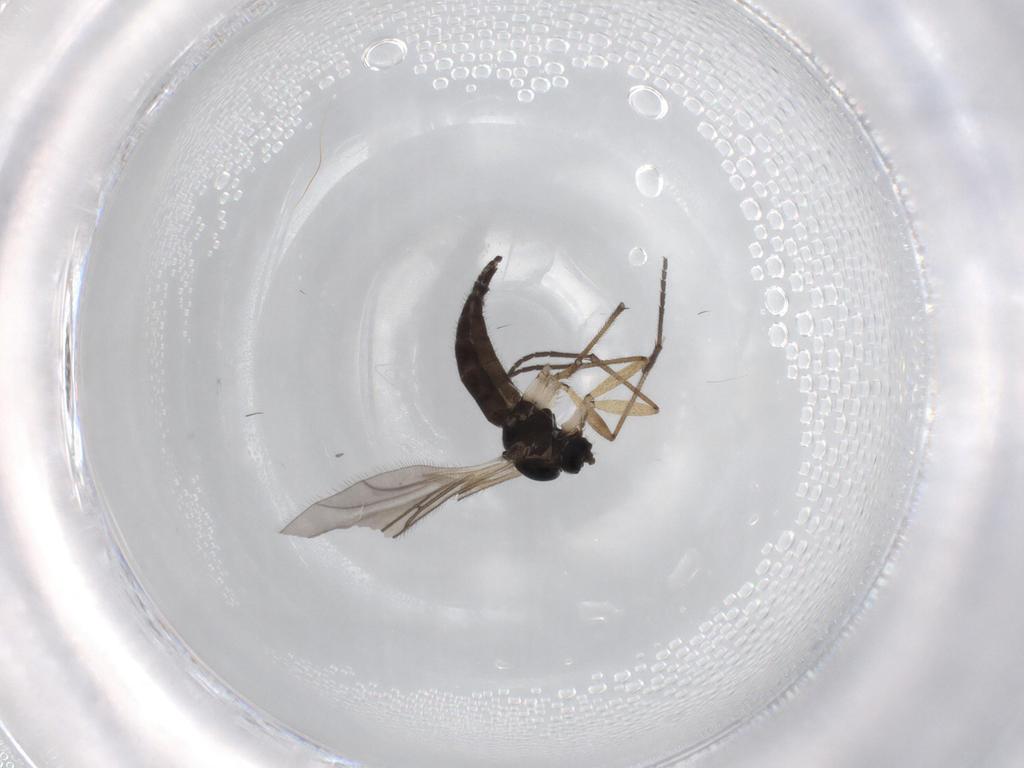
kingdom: Animalia
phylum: Arthropoda
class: Insecta
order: Diptera
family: Sciaridae
